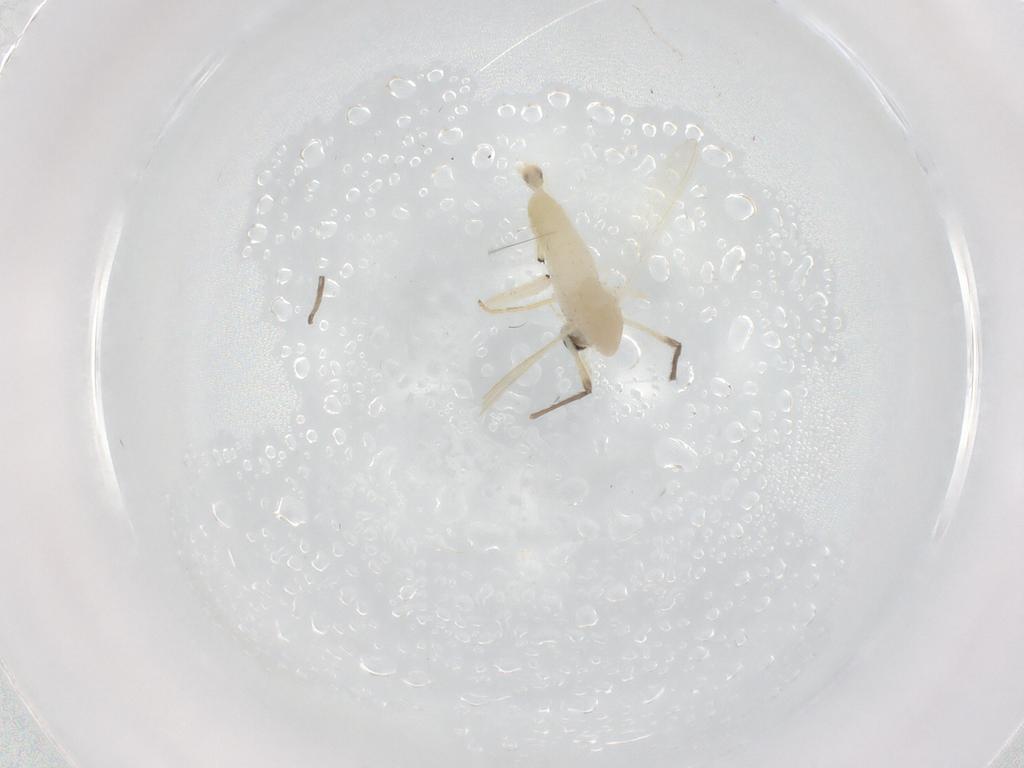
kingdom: Animalia
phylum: Arthropoda
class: Insecta
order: Diptera
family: Chironomidae
